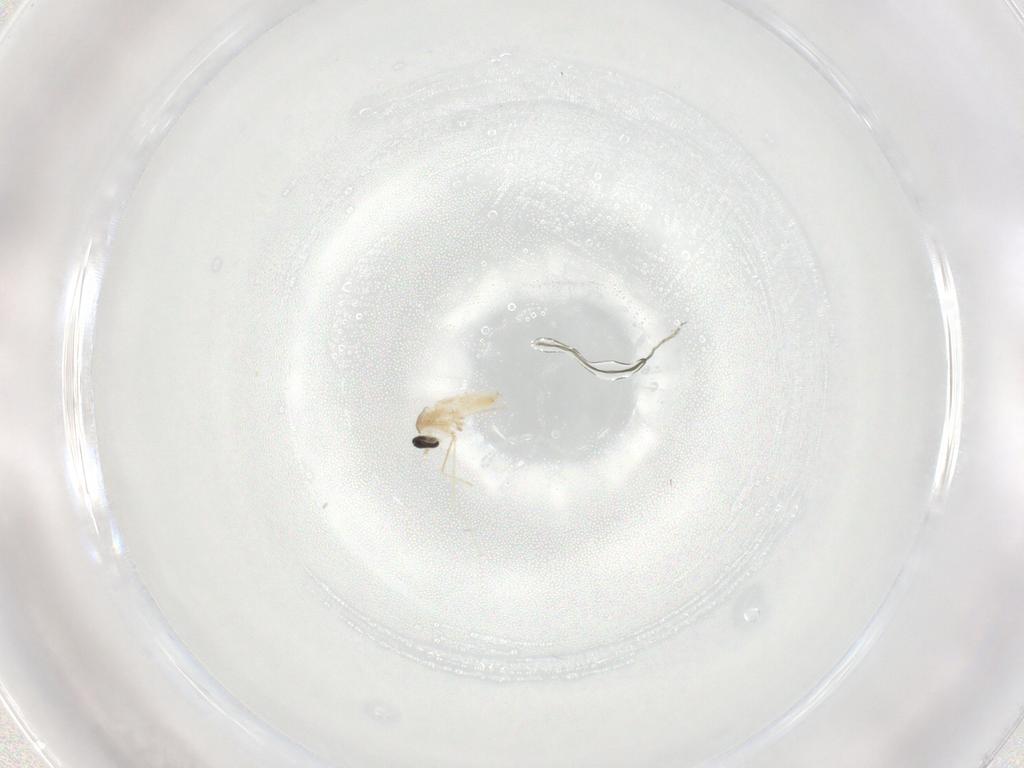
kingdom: Animalia
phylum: Arthropoda
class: Insecta
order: Diptera
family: Cecidomyiidae
